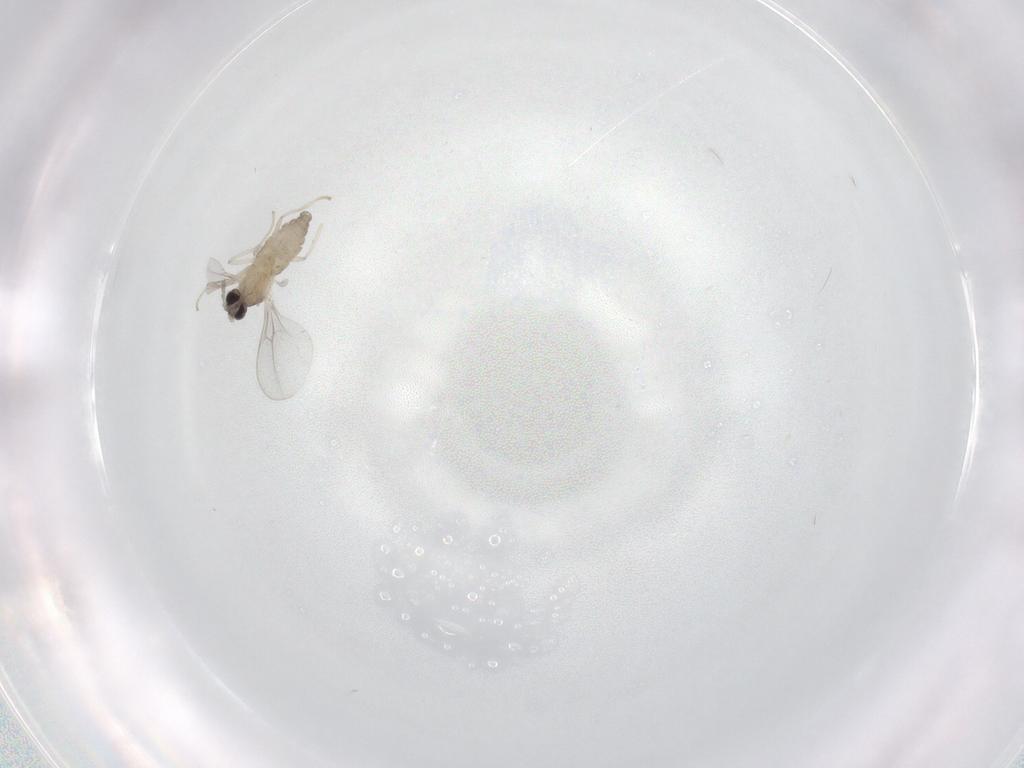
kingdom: Animalia
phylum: Arthropoda
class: Insecta
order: Diptera
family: Cecidomyiidae
